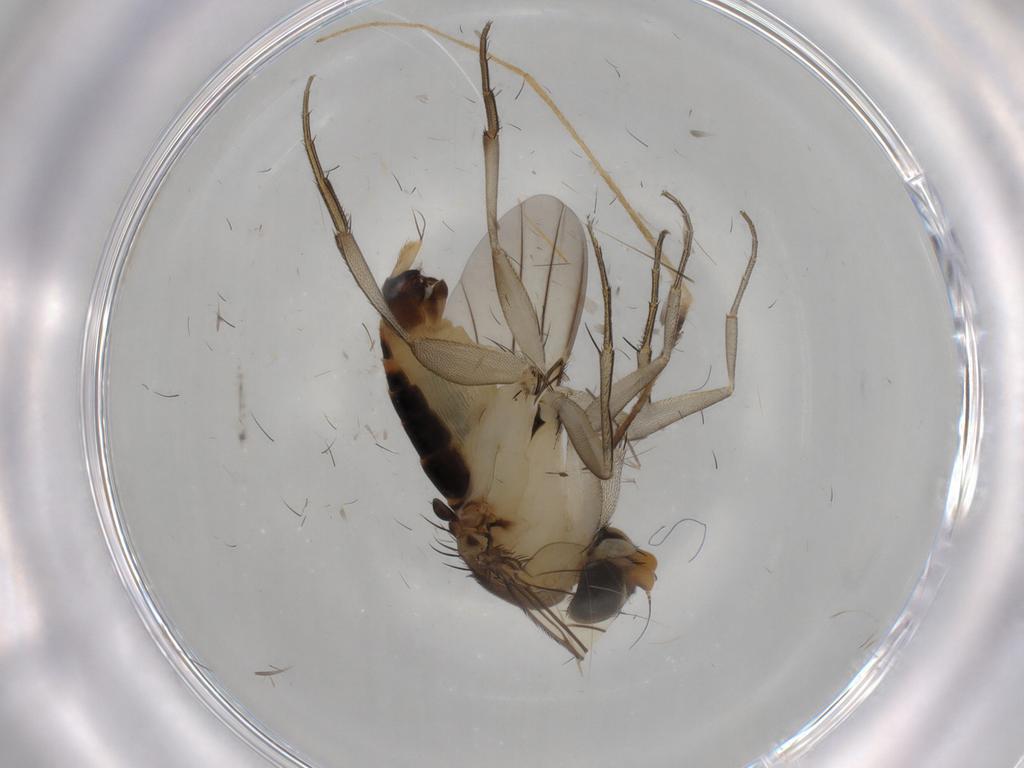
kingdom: Animalia
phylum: Arthropoda
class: Insecta
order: Diptera
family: Phoridae
